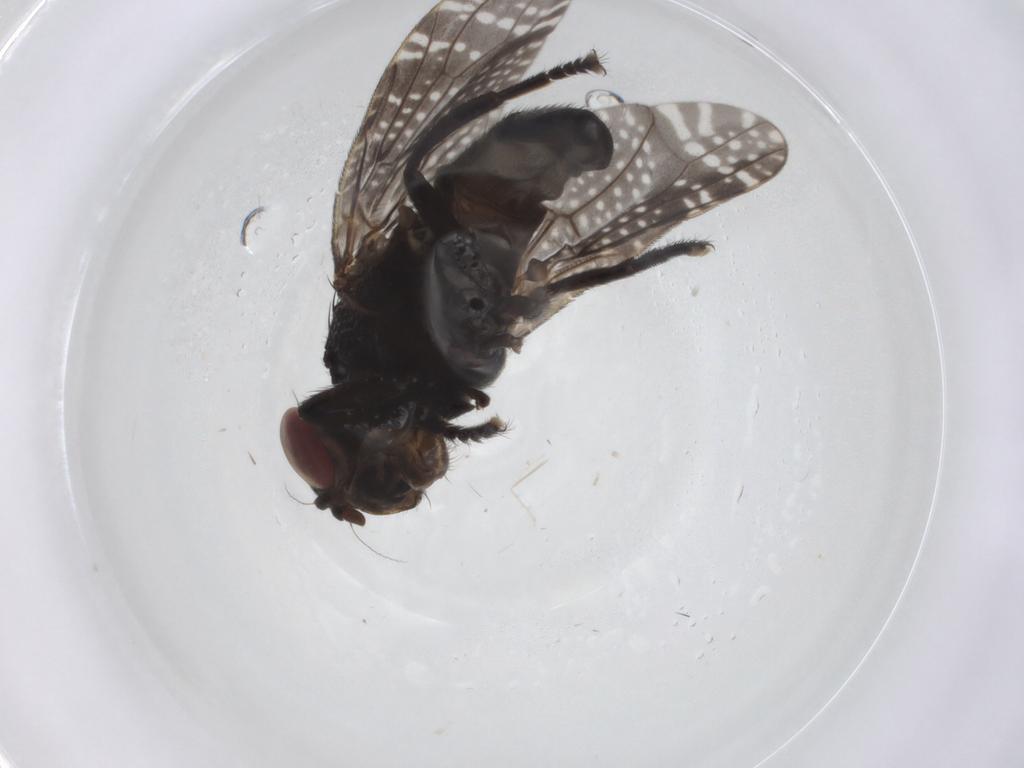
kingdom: Animalia
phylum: Arthropoda
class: Insecta
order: Diptera
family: Ceratopogonidae
